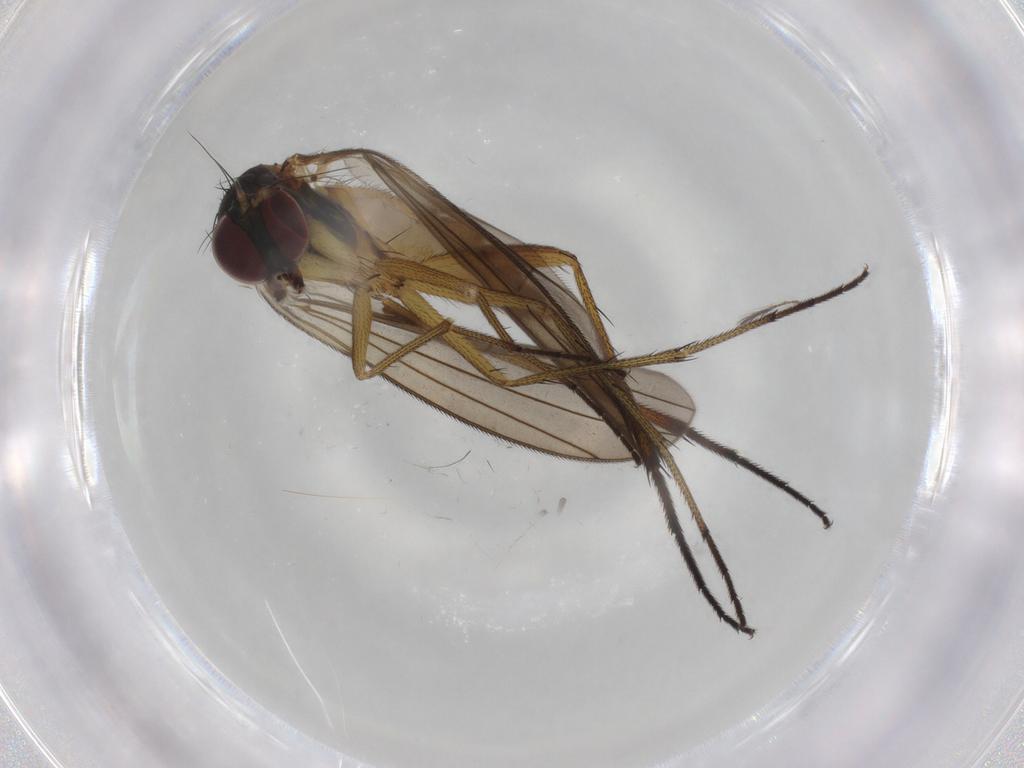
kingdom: Animalia
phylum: Arthropoda
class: Insecta
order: Diptera
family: Dolichopodidae
